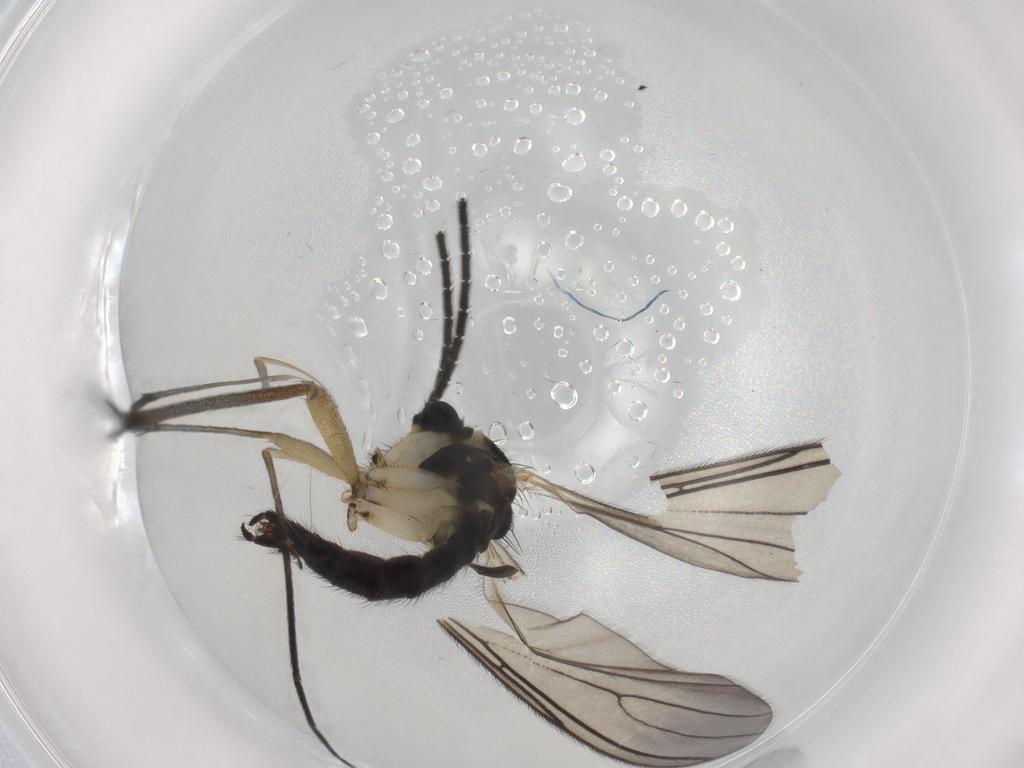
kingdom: Animalia
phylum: Arthropoda
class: Insecta
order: Diptera
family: Sciaridae
